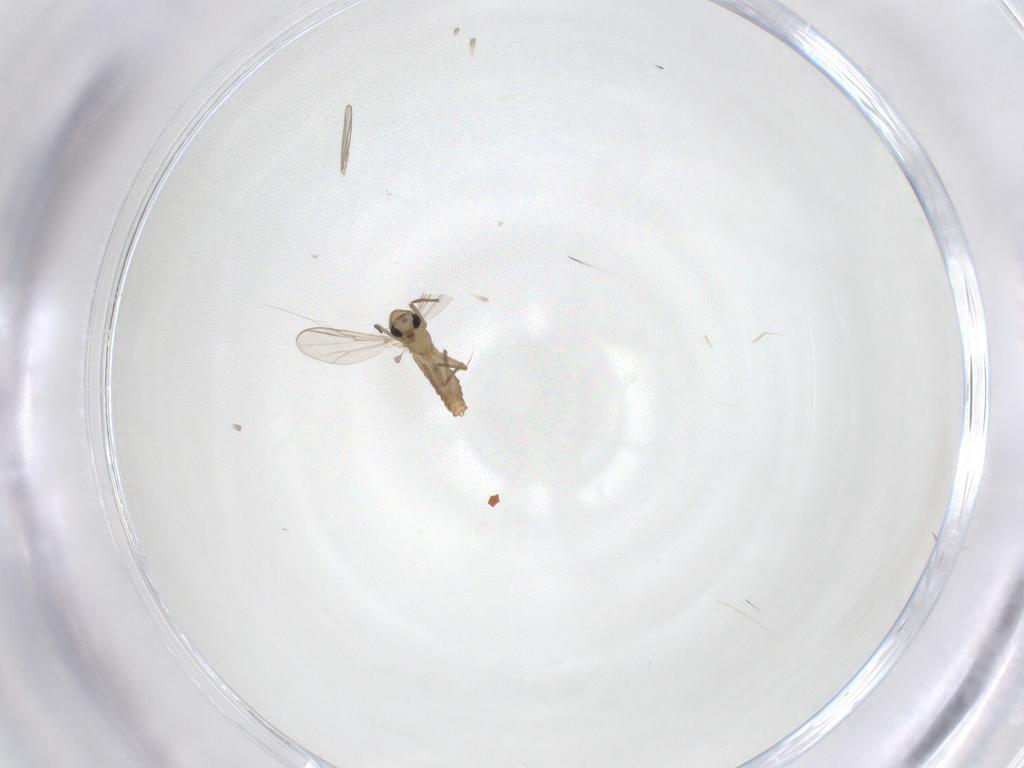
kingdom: Animalia
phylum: Arthropoda
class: Insecta
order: Diptera
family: Chironomidae
